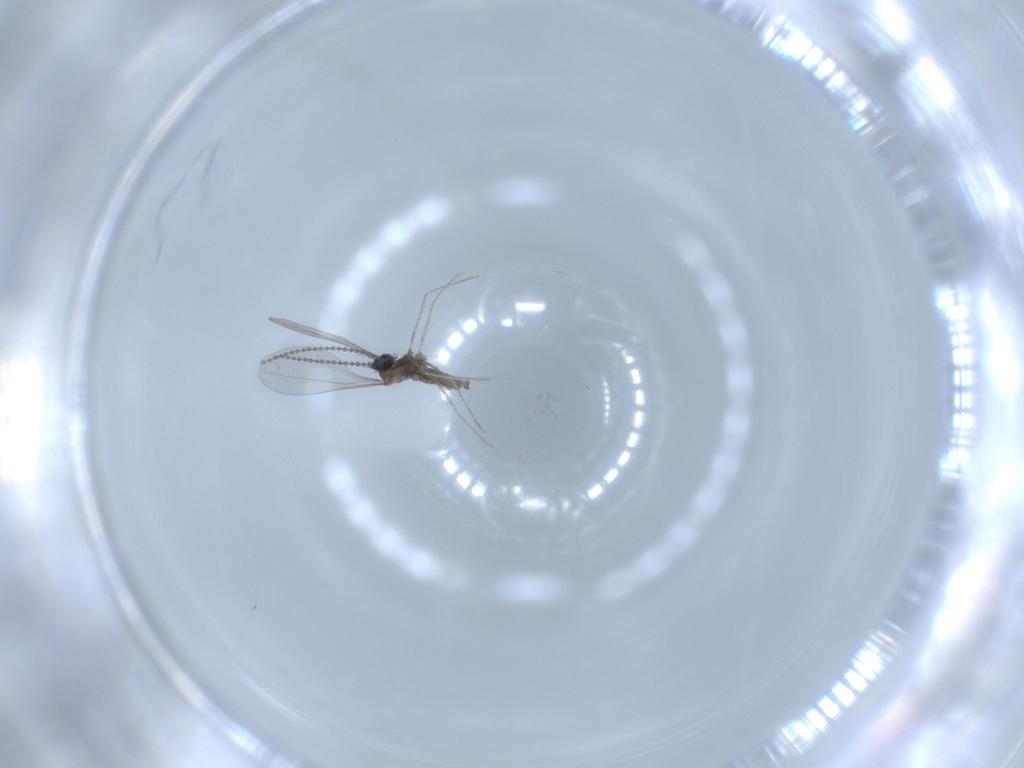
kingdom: Animalia
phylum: Arthropoda
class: Insecta
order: Diptera
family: Cecidomyiidae
